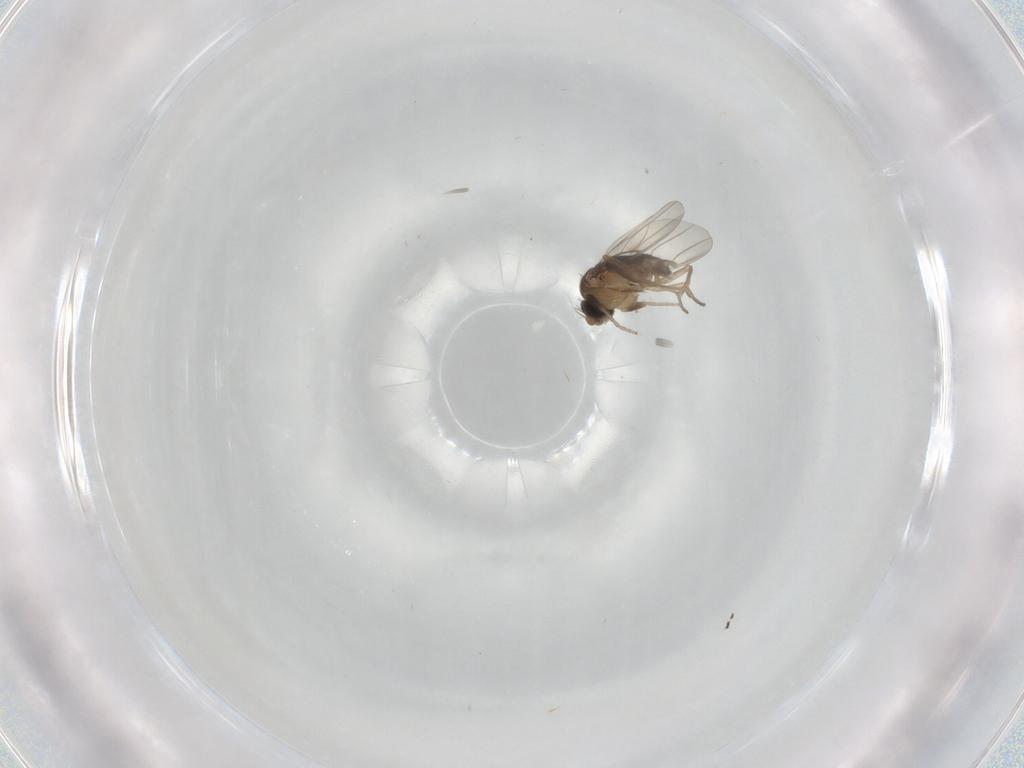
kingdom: Animalia
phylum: Arthropoda
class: Insecta
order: Diptera
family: Phoridae
